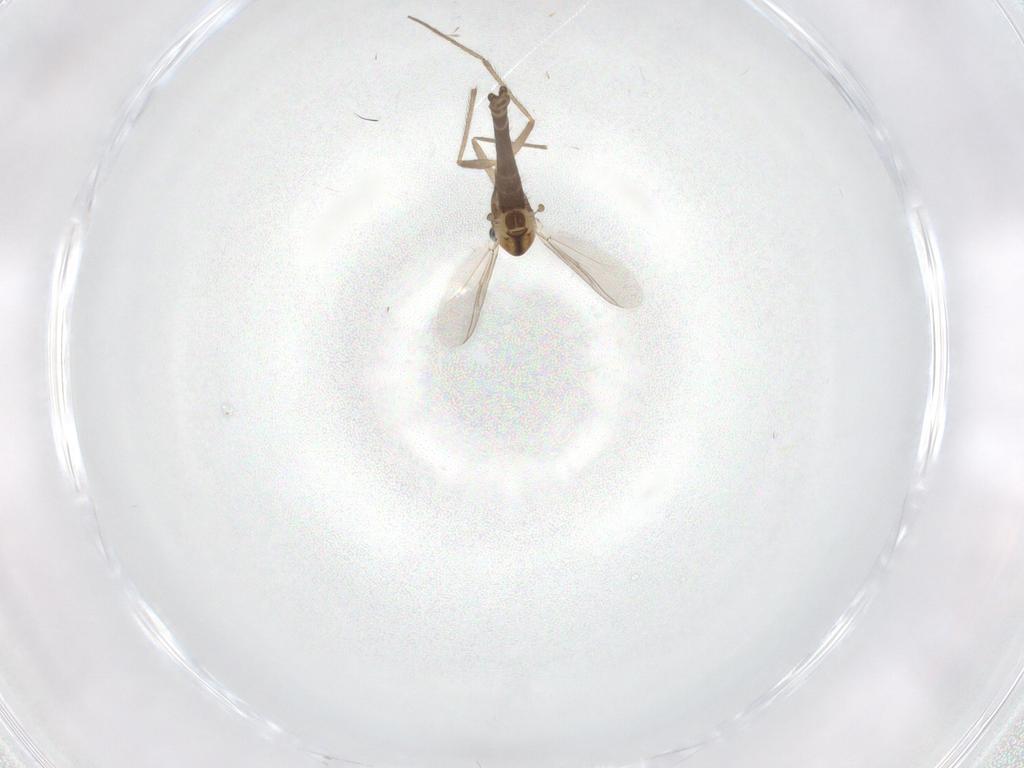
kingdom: Animalia
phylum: Arthropoda
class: Insecta
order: Diptera
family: Chironomidae
